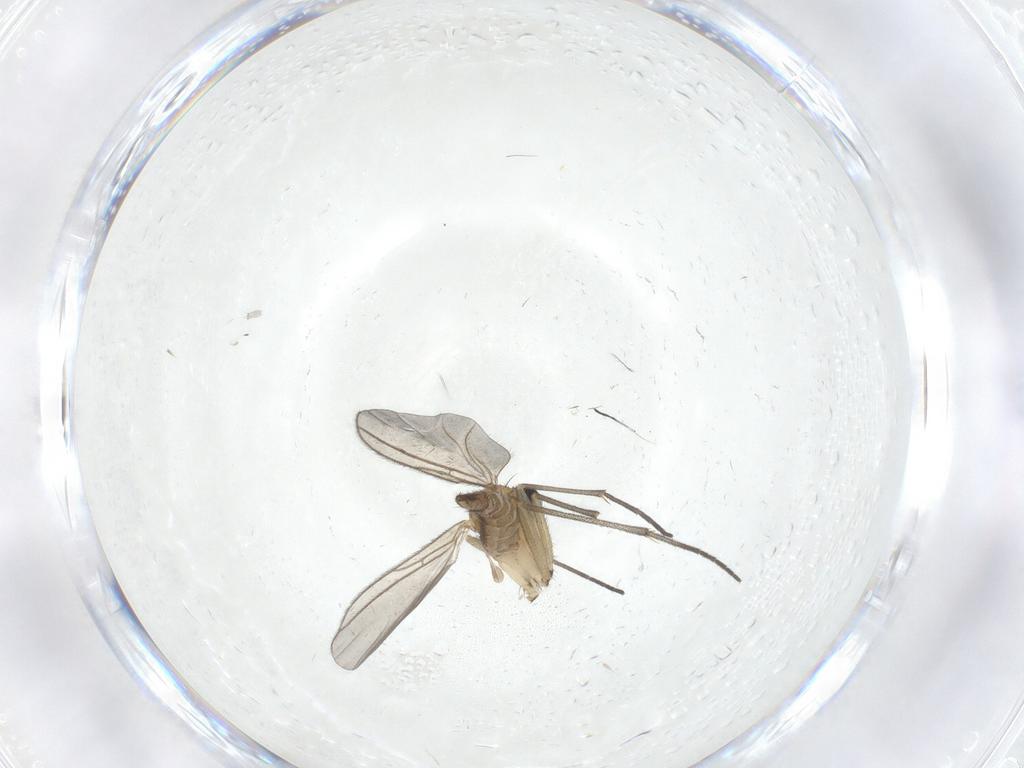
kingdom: Animalia
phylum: Arthropoda
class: Insecta
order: Diptera
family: Sciaridae
